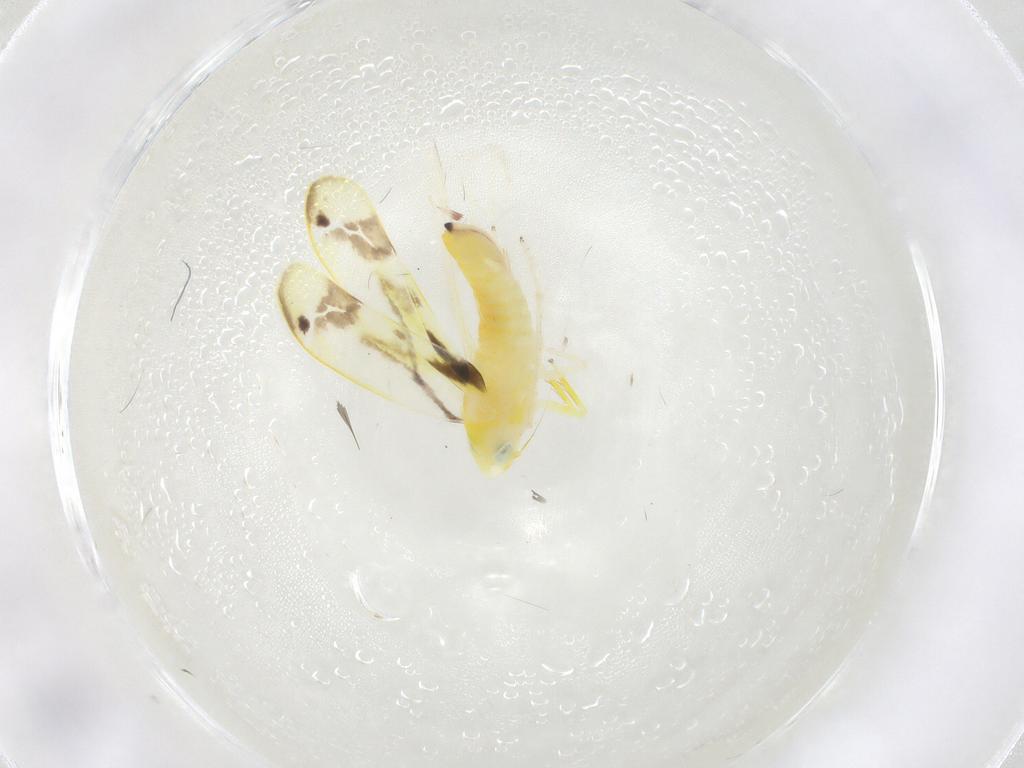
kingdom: Animalia
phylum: Arthropoda
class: Insecta
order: Hemiptera
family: Cicadellidae
